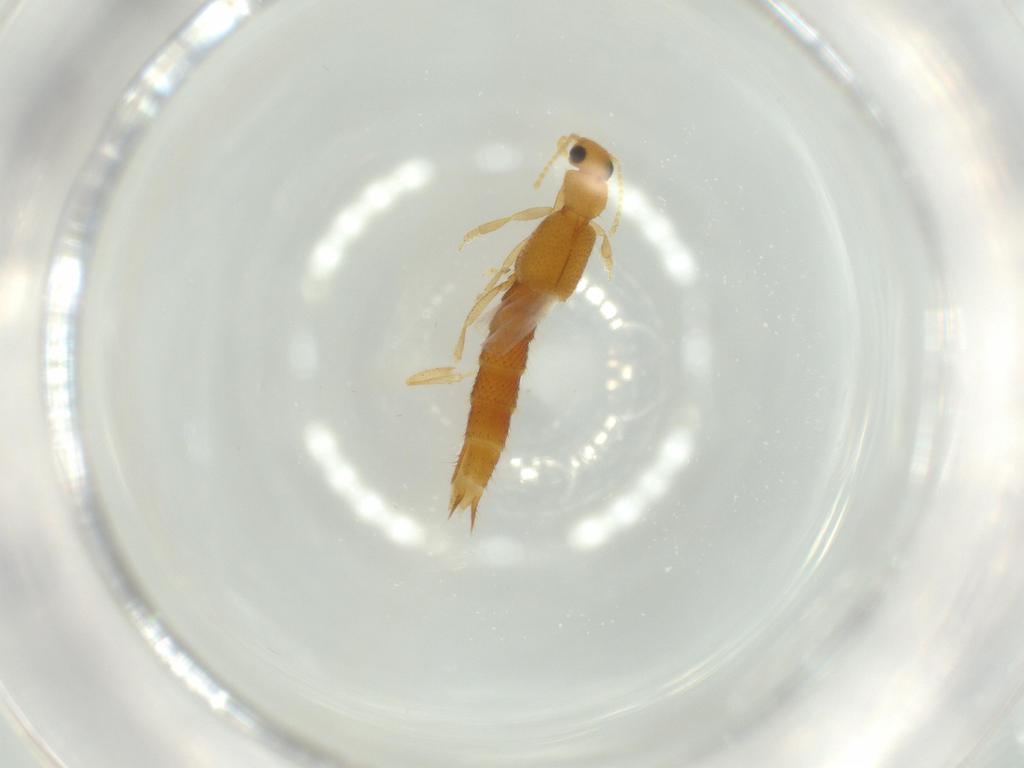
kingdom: Animalia
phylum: Arthropoda
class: Insecta
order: Coleoptera
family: Staphylinidae
